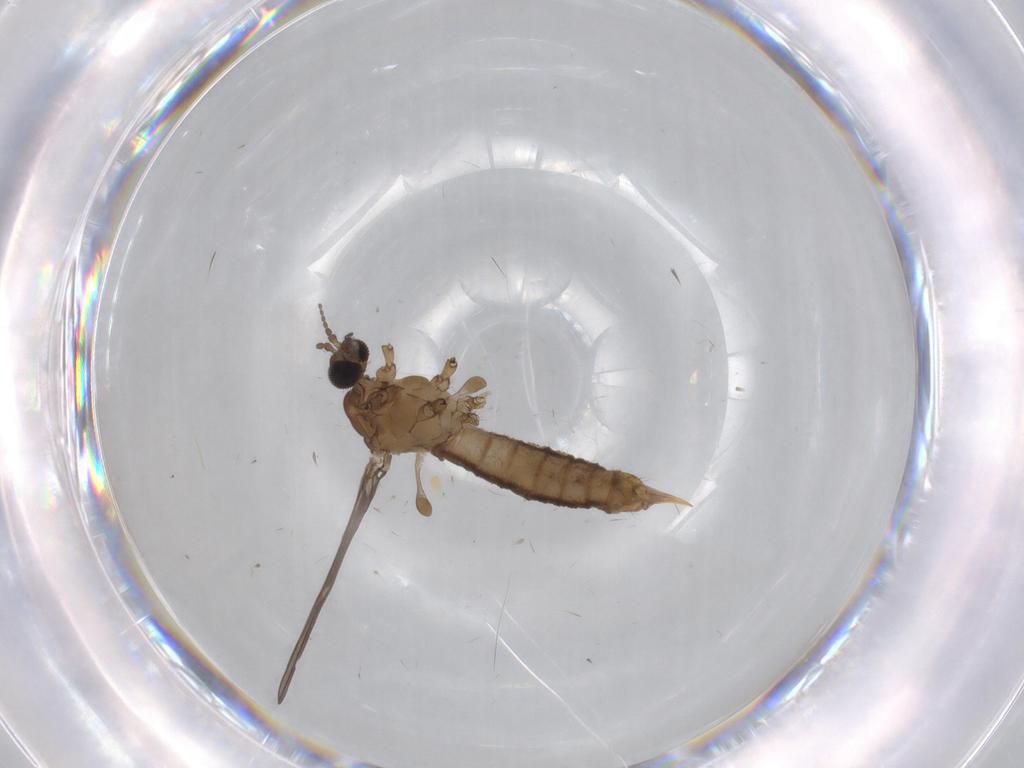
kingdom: Animalia
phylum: Arthropoda
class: Insecta
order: Diptera
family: Limoniidae
